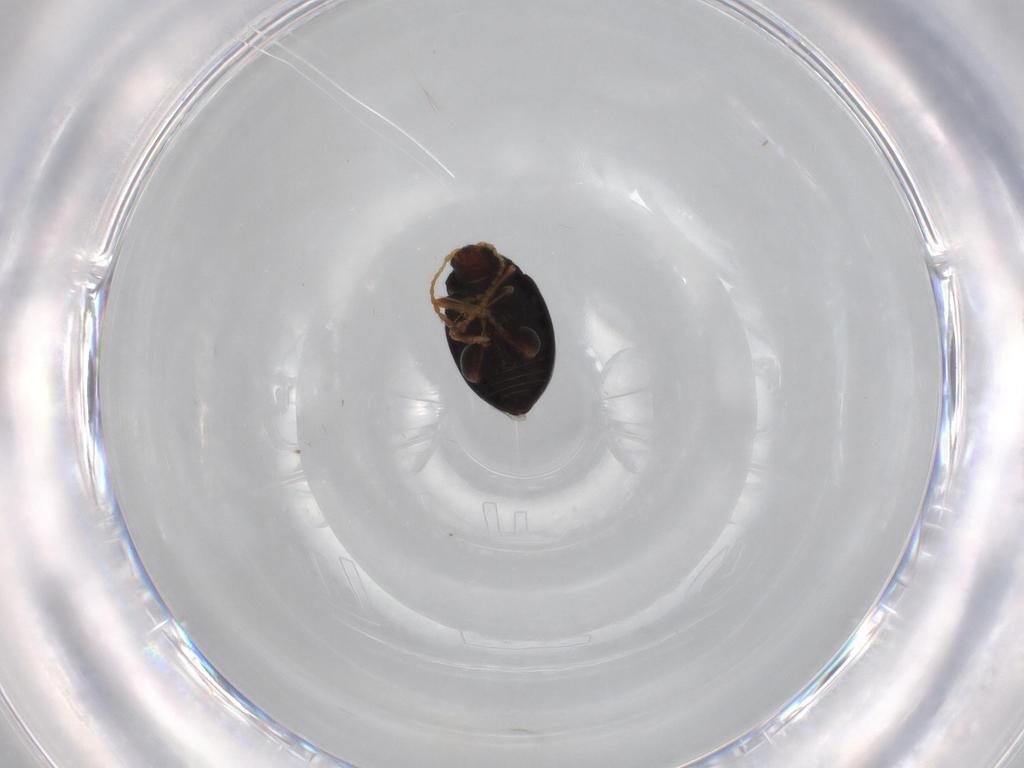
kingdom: Animalia
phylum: Arthropoda
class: Insecta
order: Coleoptera
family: Chrysomelidae
